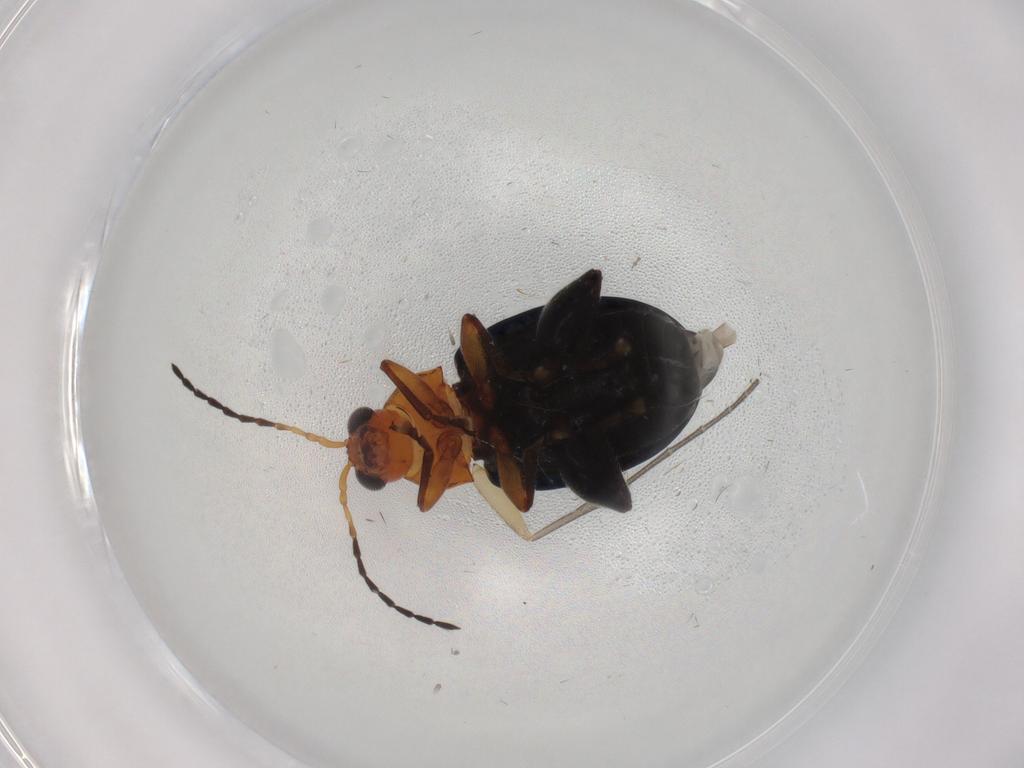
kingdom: Animalia
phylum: Arthropoda
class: Insecta
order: Coleoptera
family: Chrysomelidae
